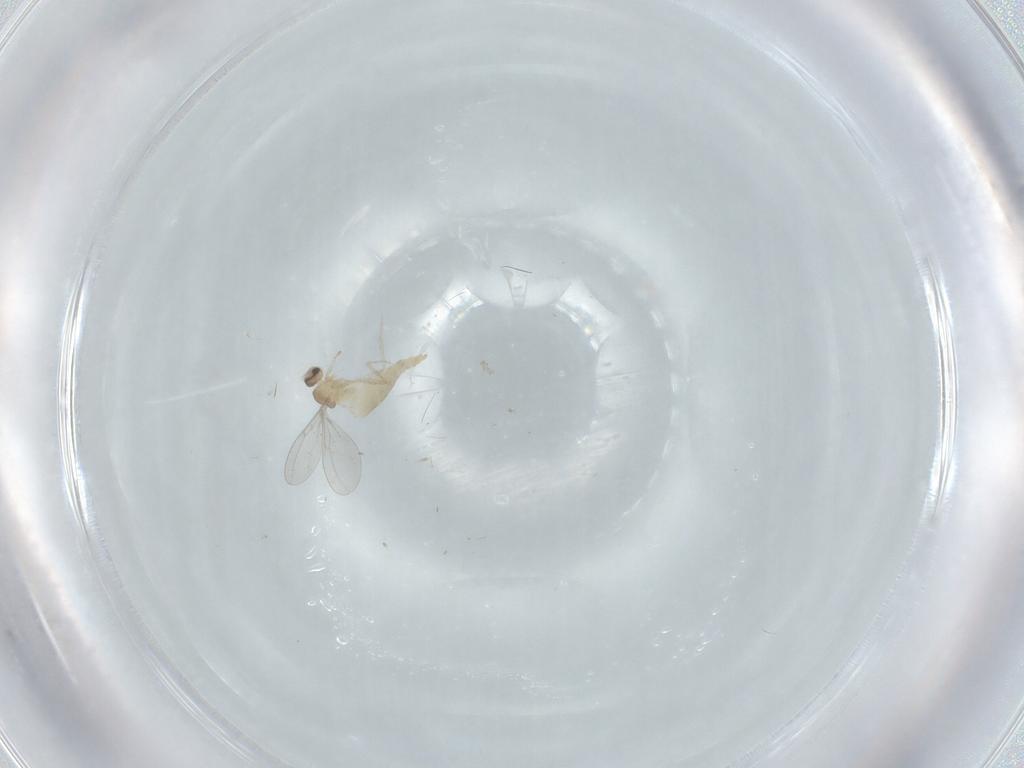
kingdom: Animalia
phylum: Arthropoda
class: Insecta
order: Diptera
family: Cecidomyiidae
